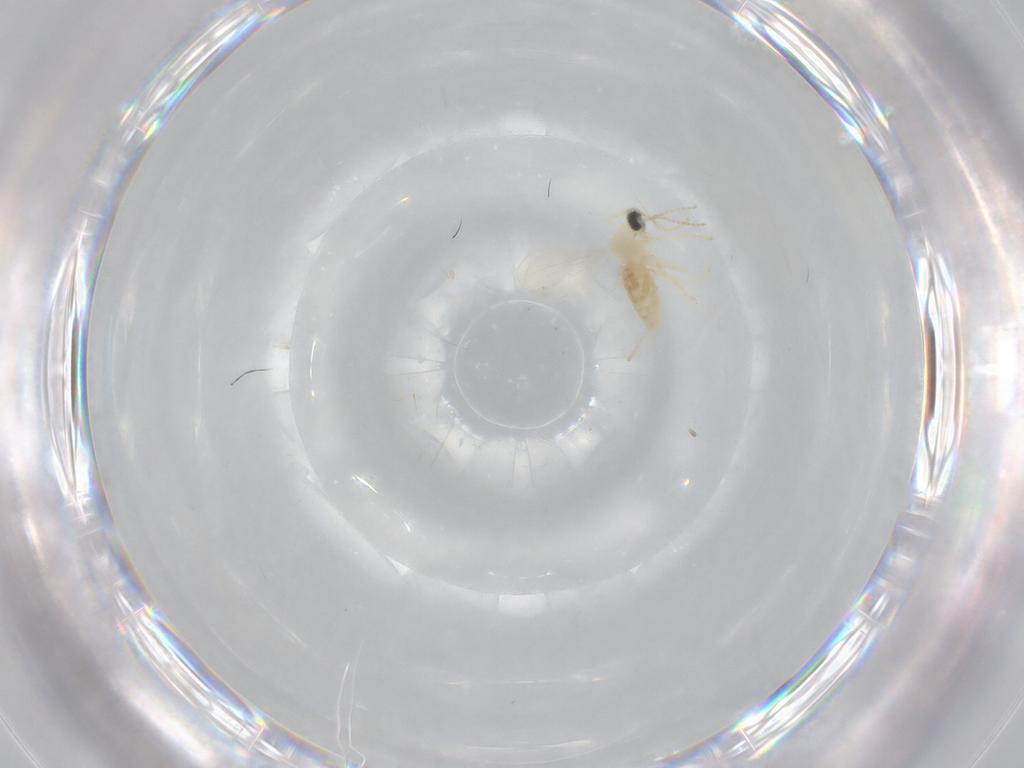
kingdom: Animalia
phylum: Arthropoda
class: Insecta
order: Diptera
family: Cecidomyiidae
